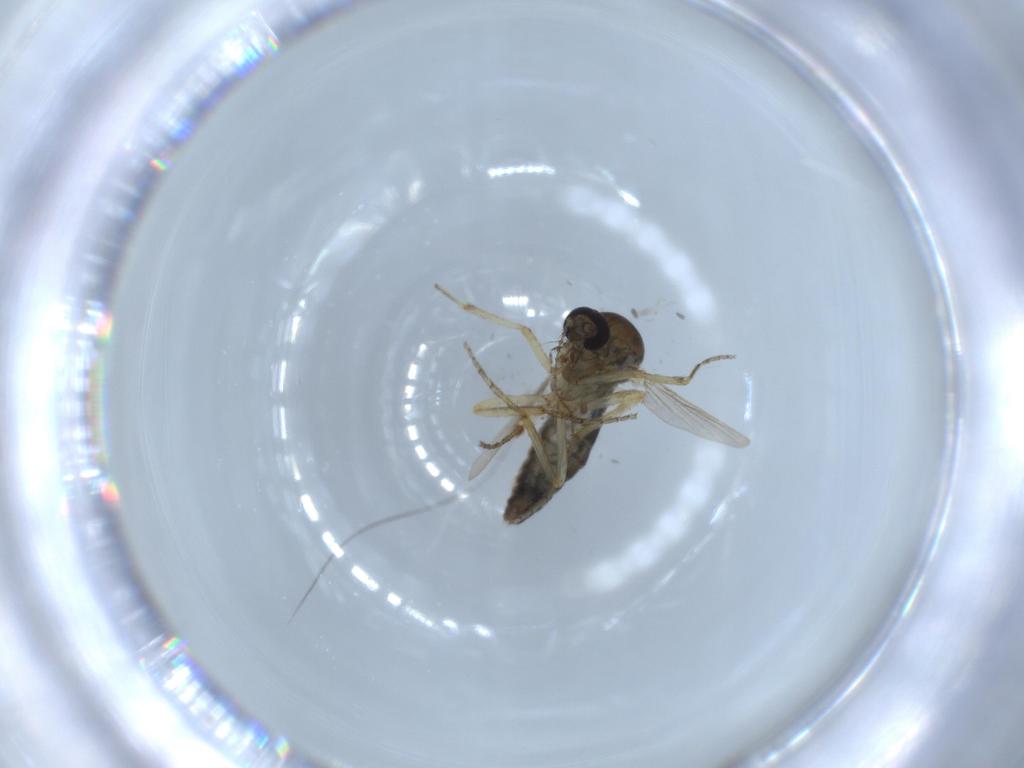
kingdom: Animalia
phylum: Arthropoda
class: Insecta
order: Diptera
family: Ceratopogonidae
